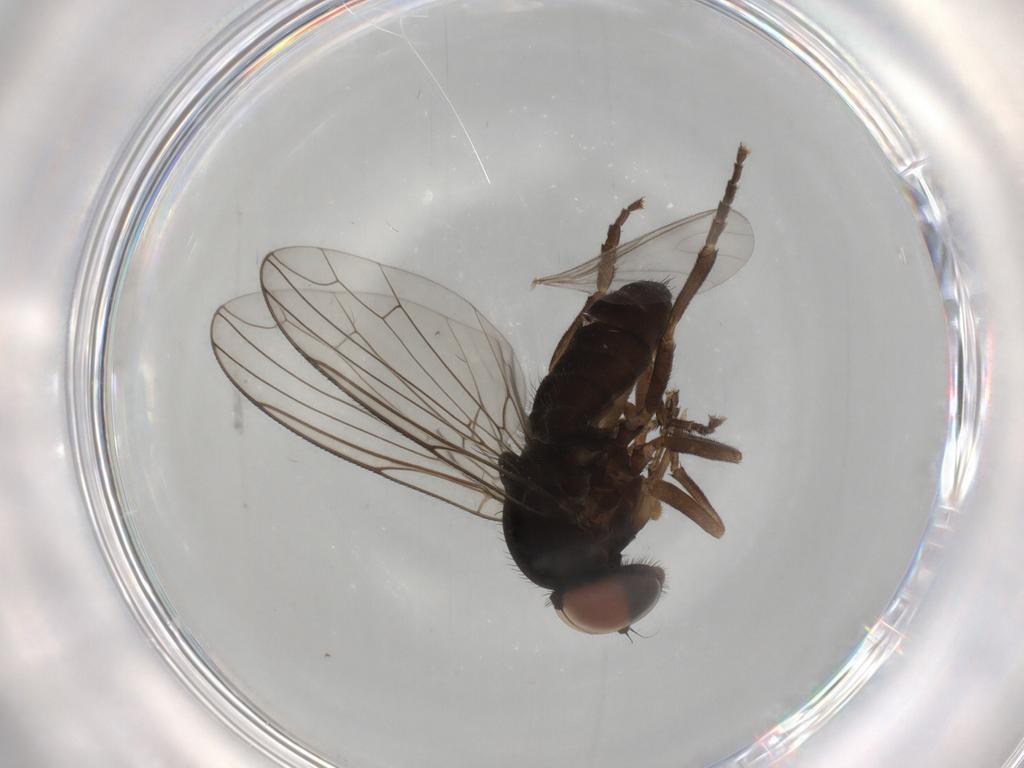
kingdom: Animalia
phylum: Arthropoda
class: Insecta
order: Diptera
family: Platypezidae
